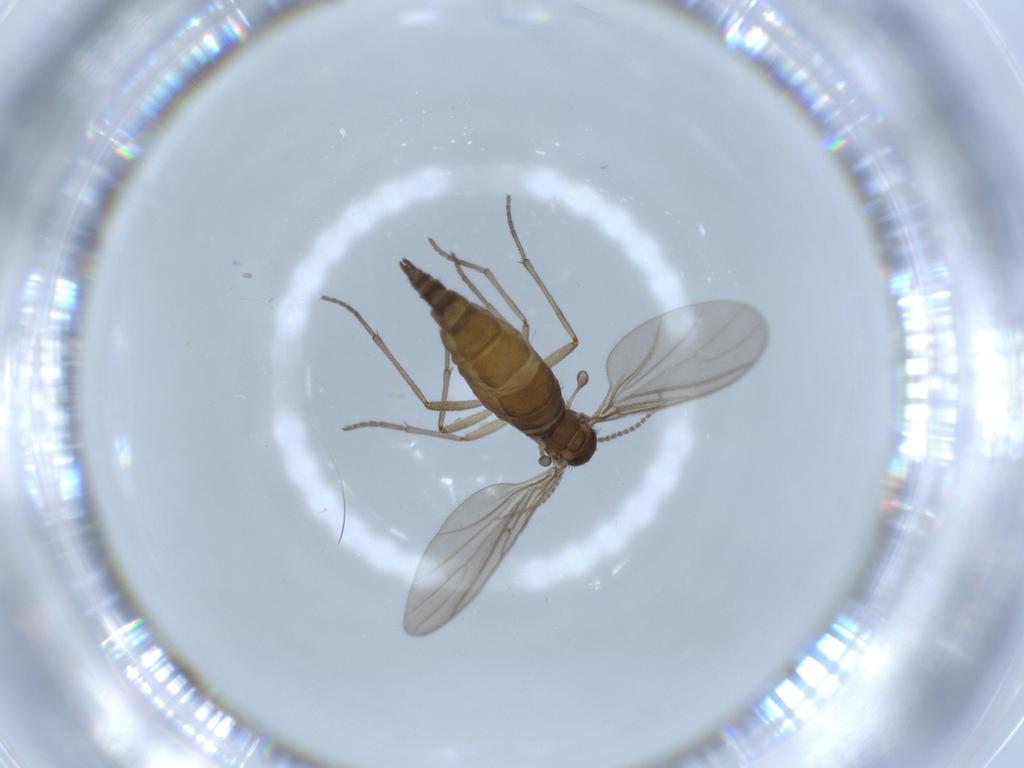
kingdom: Animalia
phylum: Arthropoda
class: Insecta
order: Diptera
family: Sciaridae
